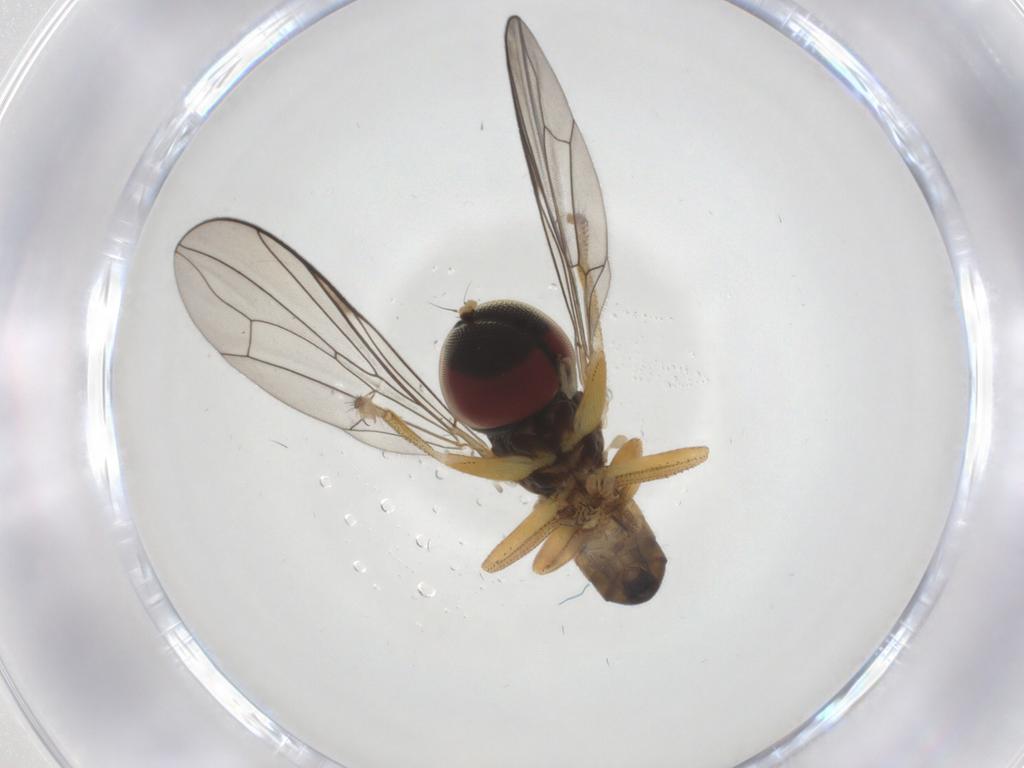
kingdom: Animalia
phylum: Arthropoda
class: Insecta
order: Diptera
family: Pipunculidae
